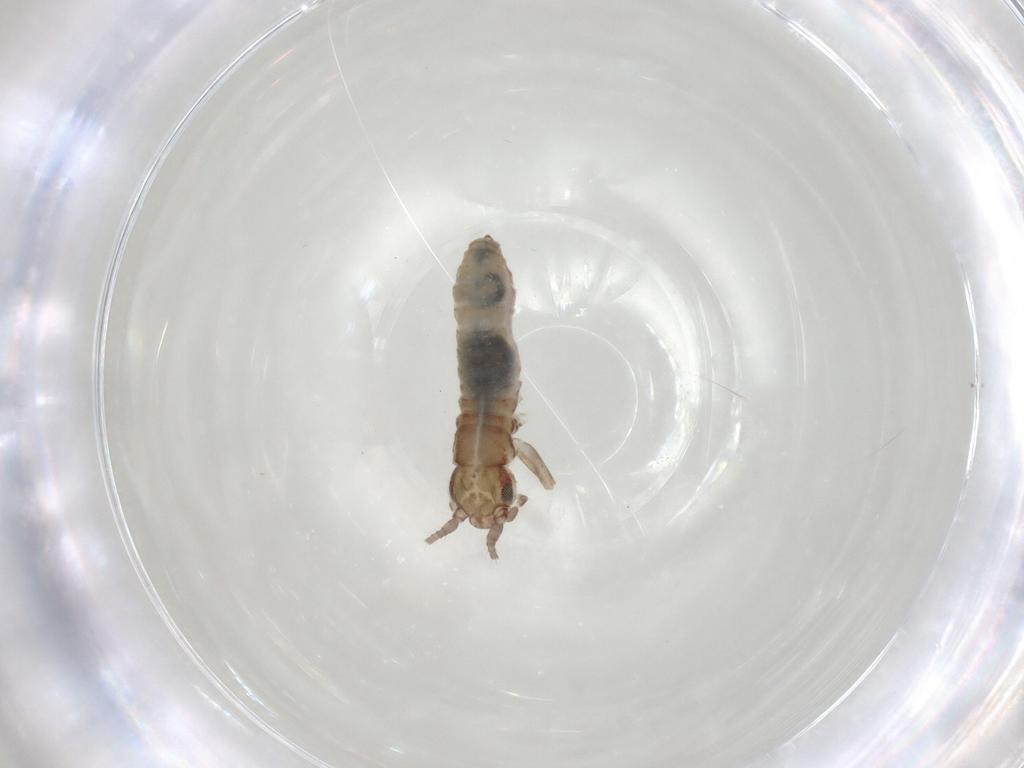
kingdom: Animalia
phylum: Arthropoda
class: Insecta
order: Orthoptera
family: Mogoplistidae
